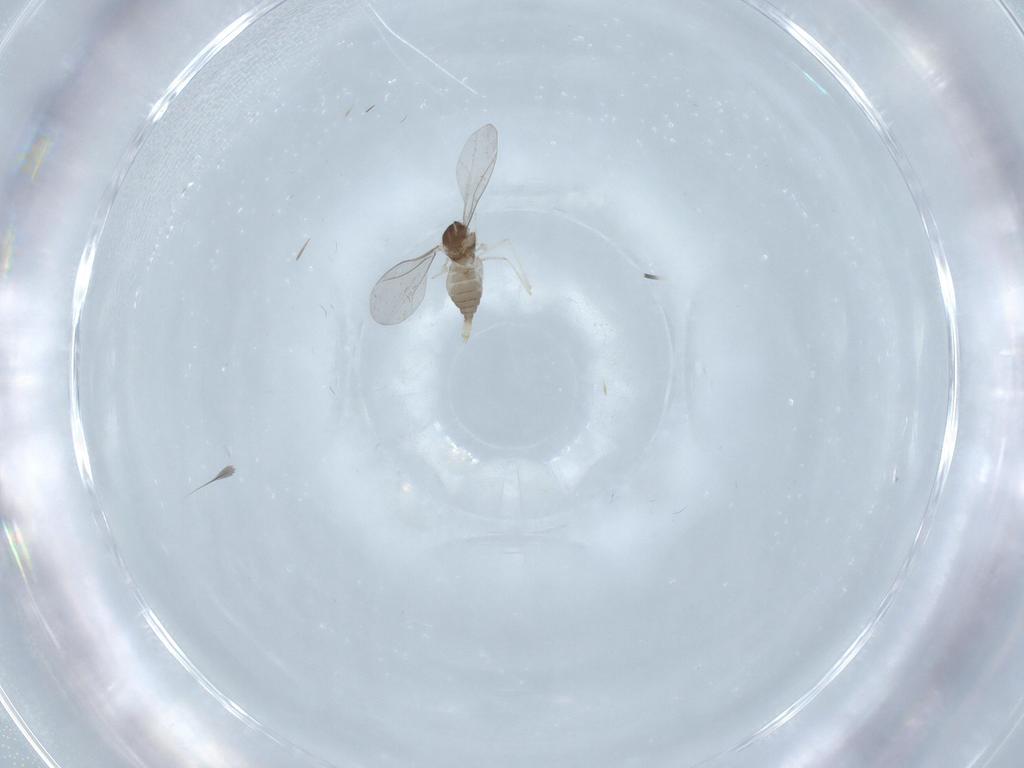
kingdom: Animalia
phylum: Arthropoda
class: Insecta
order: Diptera
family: Cecidomyiidae
